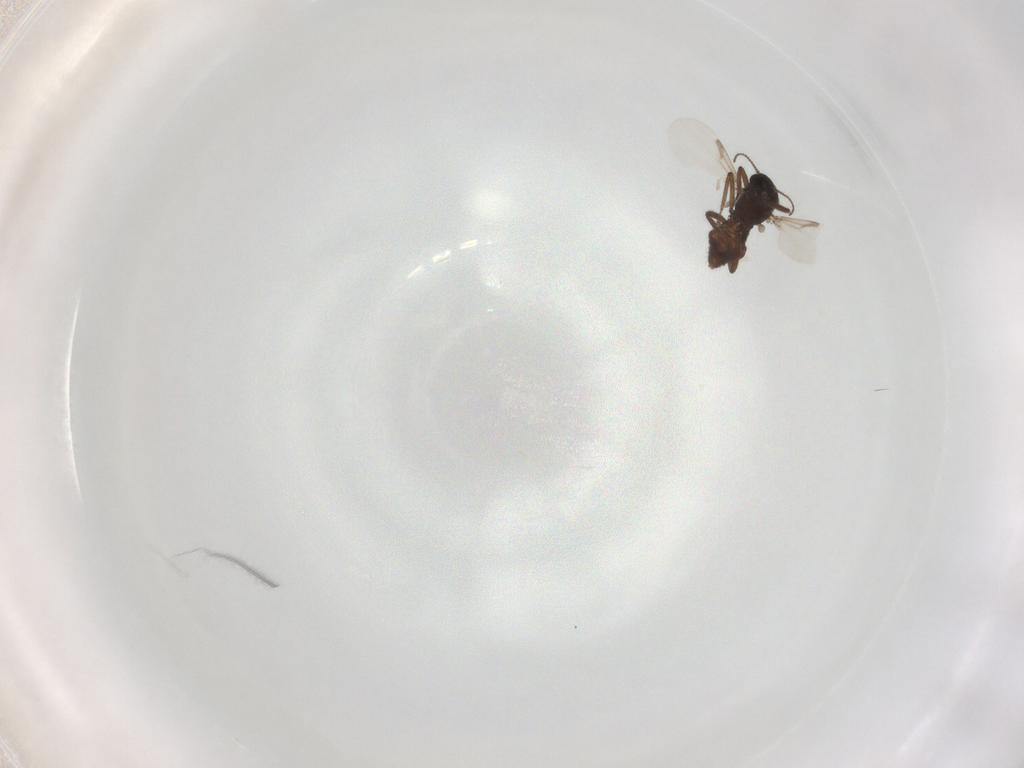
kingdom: Animalia
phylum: Arthropoda
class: Insecta
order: Diptera
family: Ceratopogonidae
